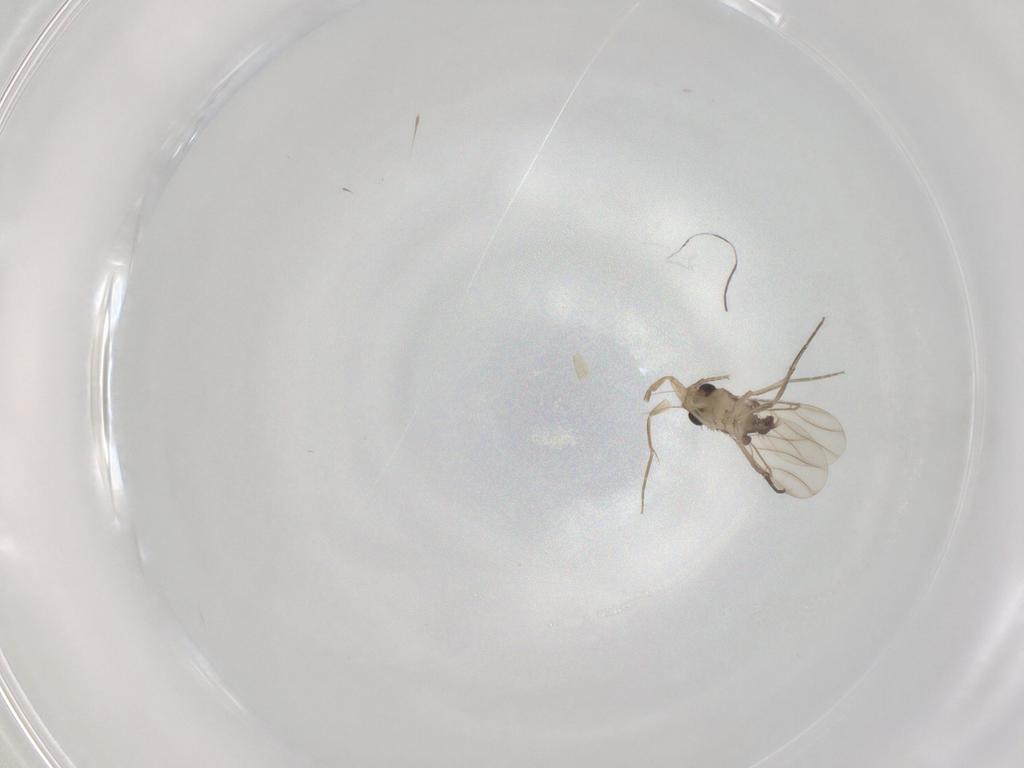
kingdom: Animalia
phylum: Arthropoda
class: Insecta
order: Diptera
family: Phoridae
